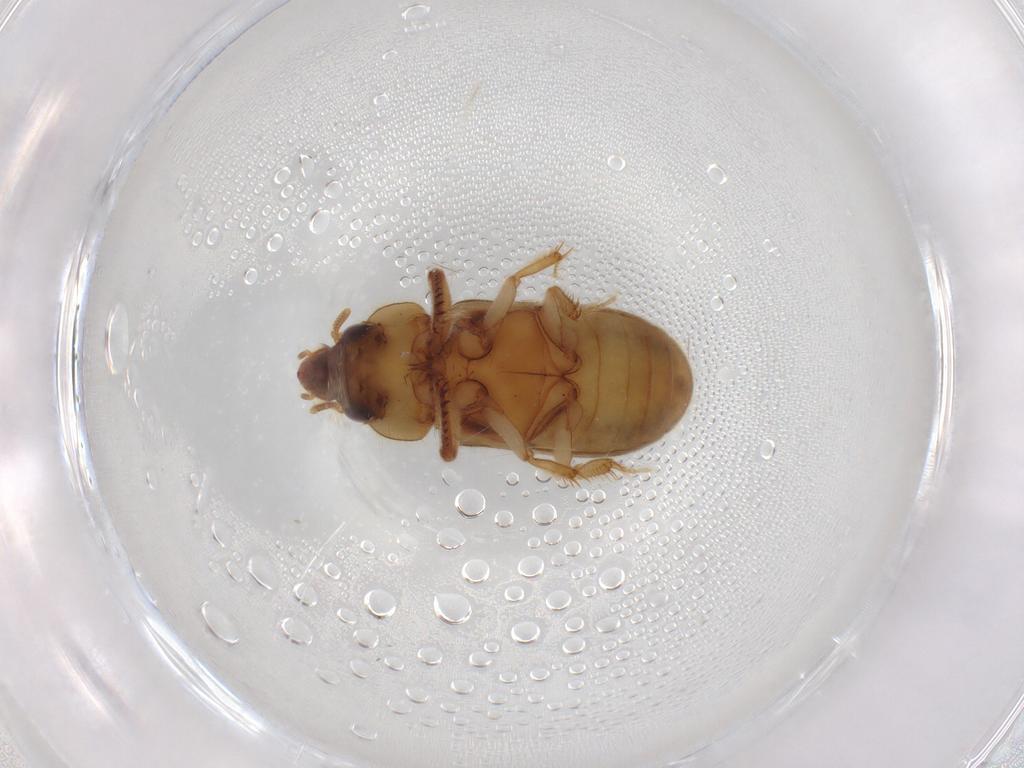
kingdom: Animalia
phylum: Arthropoda
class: Insecta
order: Coleoptera
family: Heteroceridae
